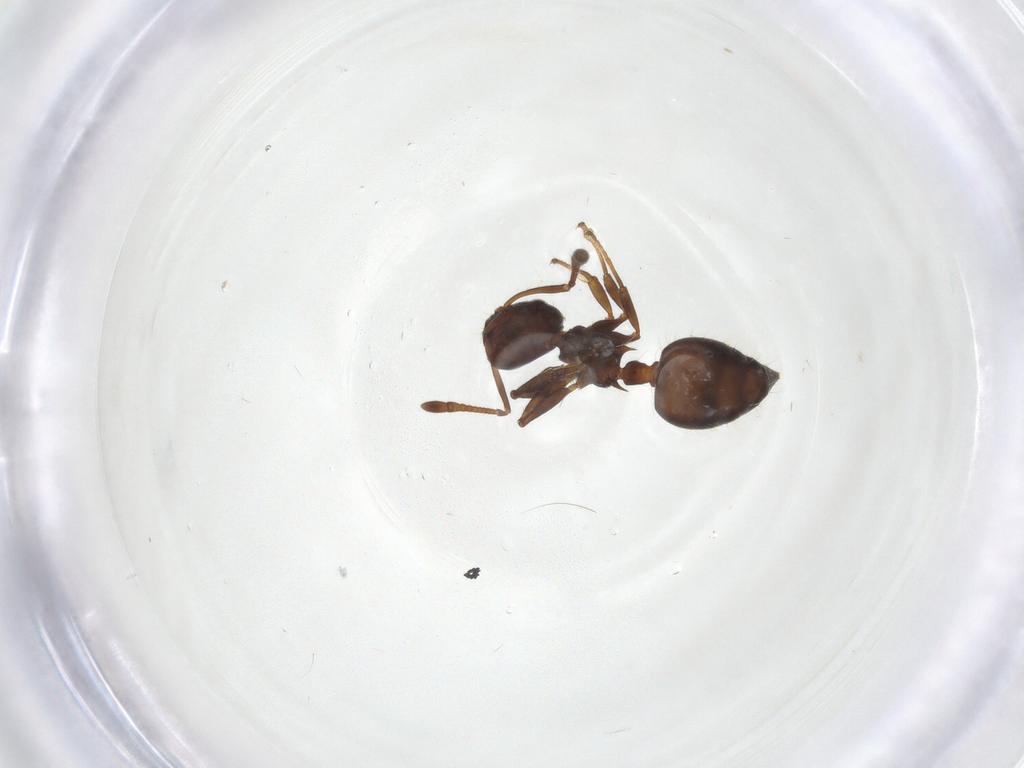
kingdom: Animalia
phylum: Arthropoda
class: Insecta
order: Hymenoptera
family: Formicidae
